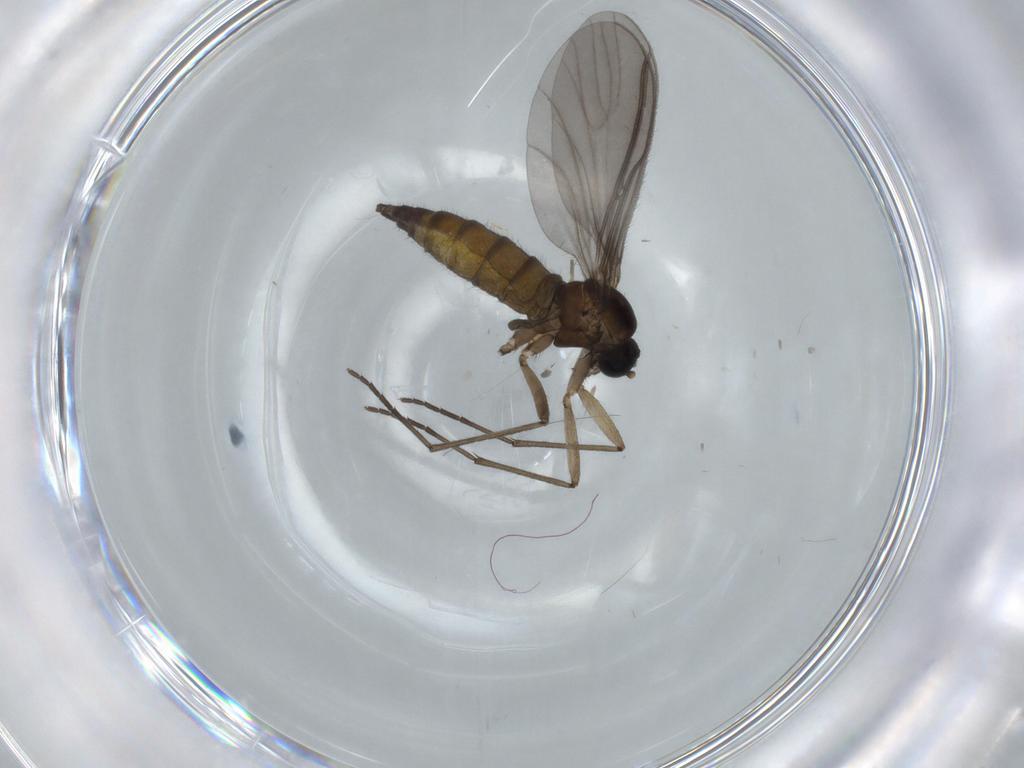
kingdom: Animalia
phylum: Arthropoda
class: Insecta
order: Diptera
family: Sciaridae
